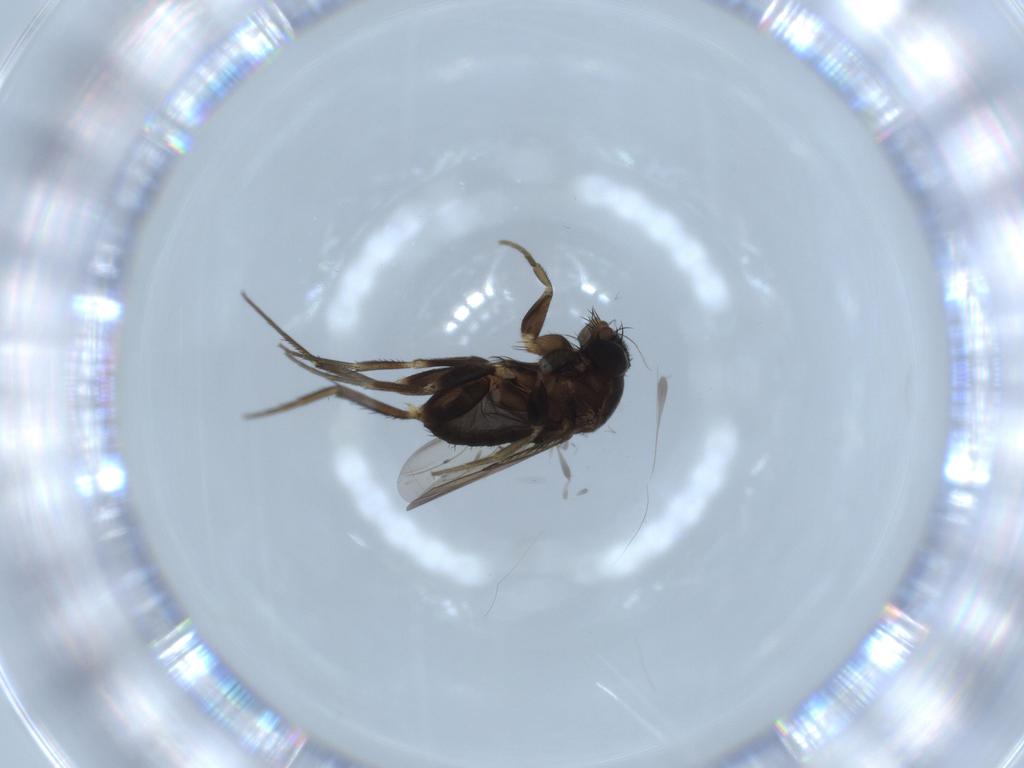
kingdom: Animalia
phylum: Arthropoda
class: Insecta
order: Diptera
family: Phoridae
